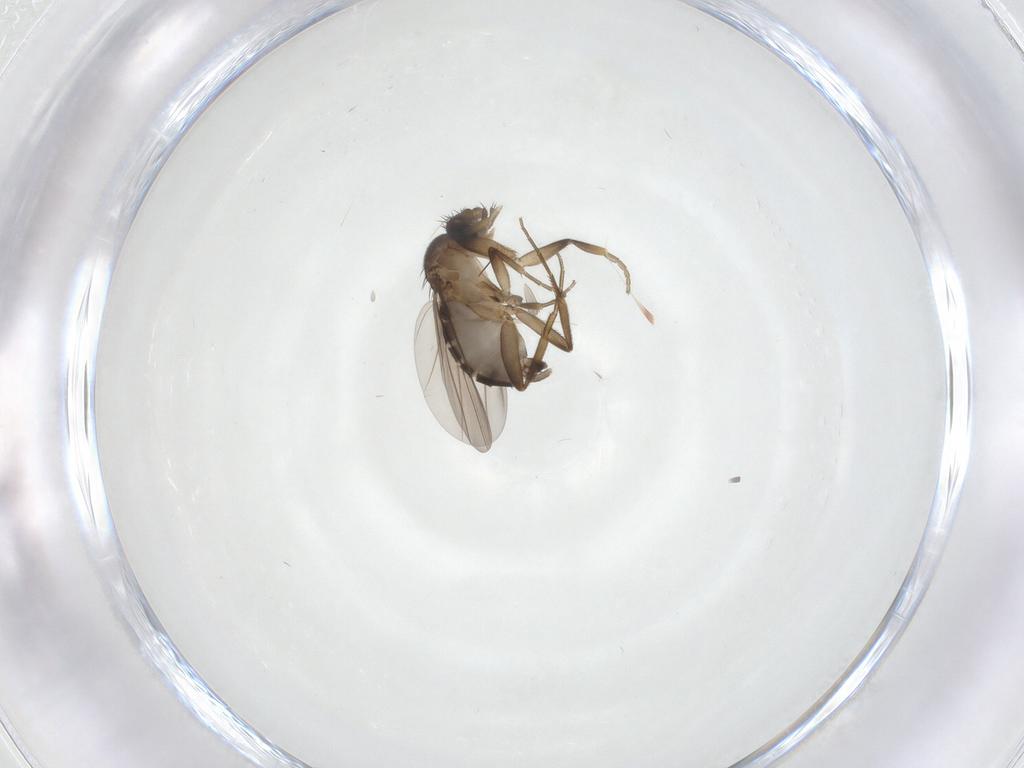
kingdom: Animalia
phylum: Arthropoda
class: Insecta
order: Diptera
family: Phoridae
